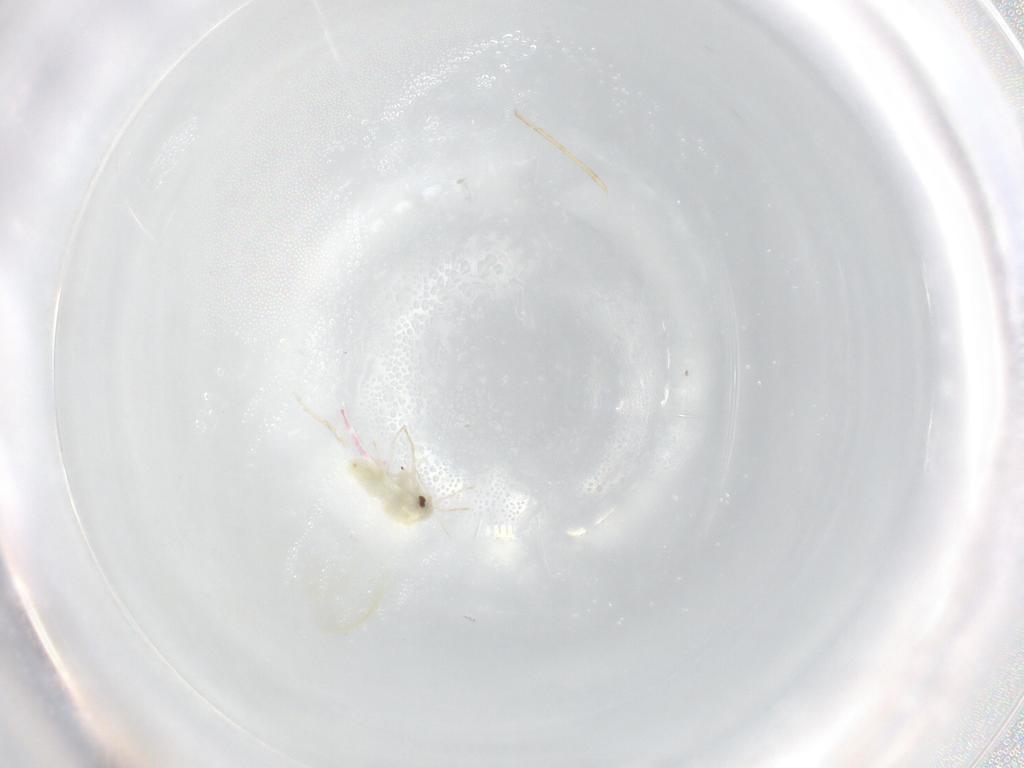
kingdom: Animalia
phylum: Arthropoda
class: Insecta
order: Hemiptera
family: Aleyrodidae
